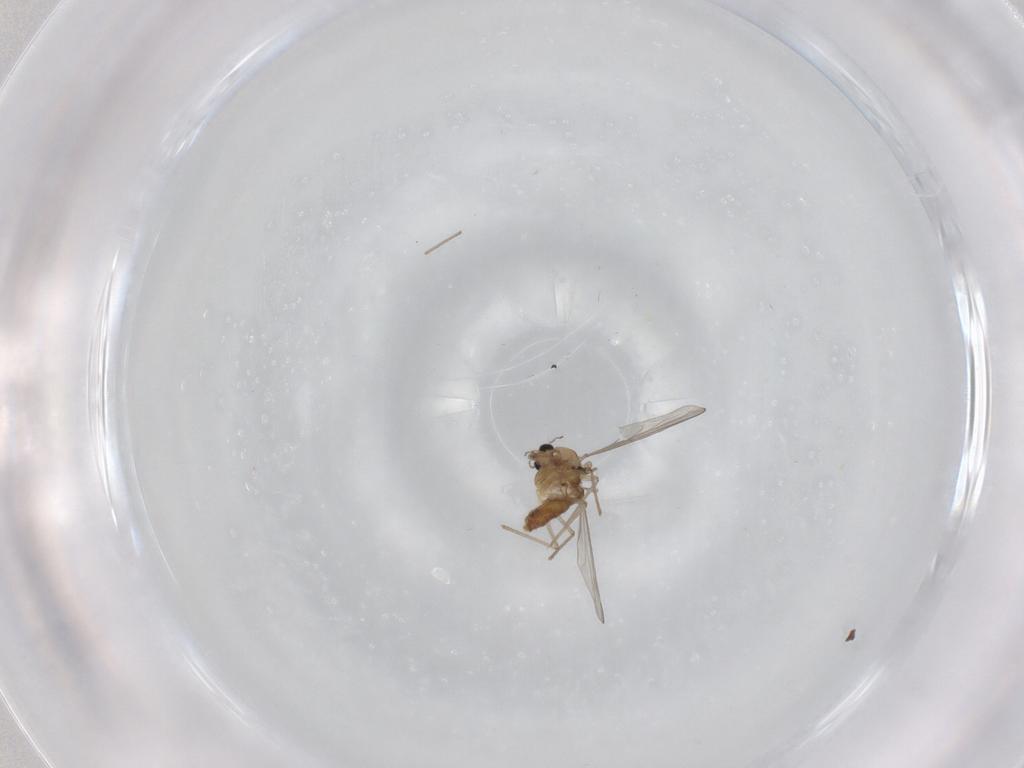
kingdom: Animalia
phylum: Arthropoda
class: Insecta
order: Diptera
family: Chironomidae
